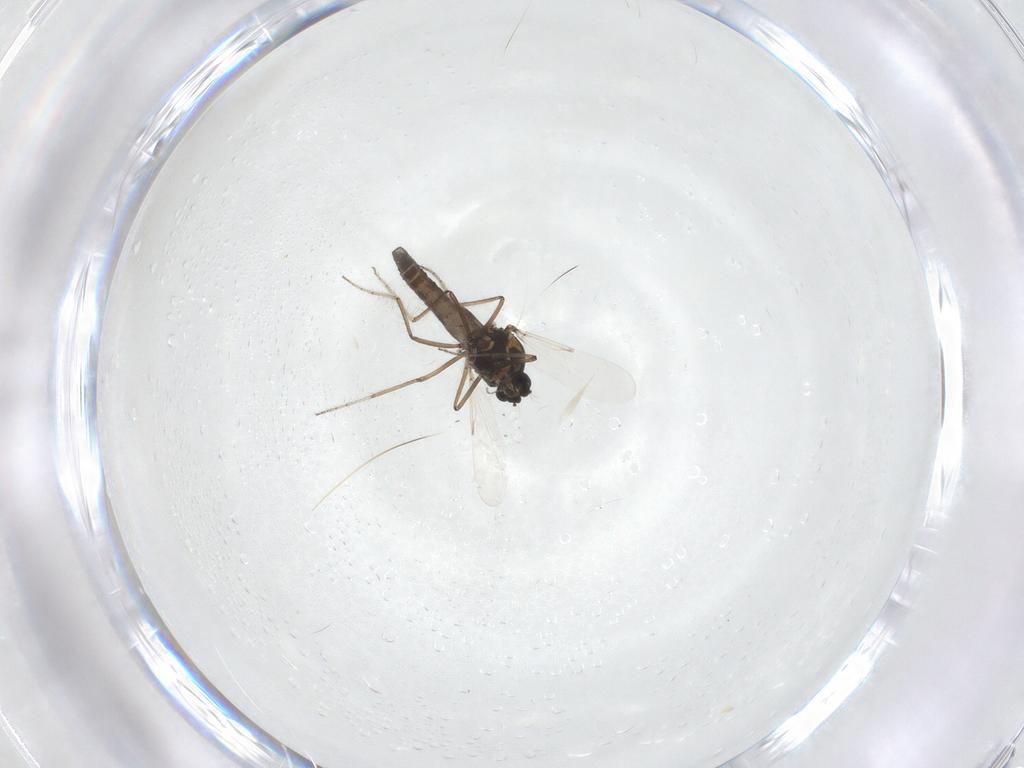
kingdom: Animalia
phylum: Arthropoda
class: Insecta
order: Diptera
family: Ceratopogonidae
